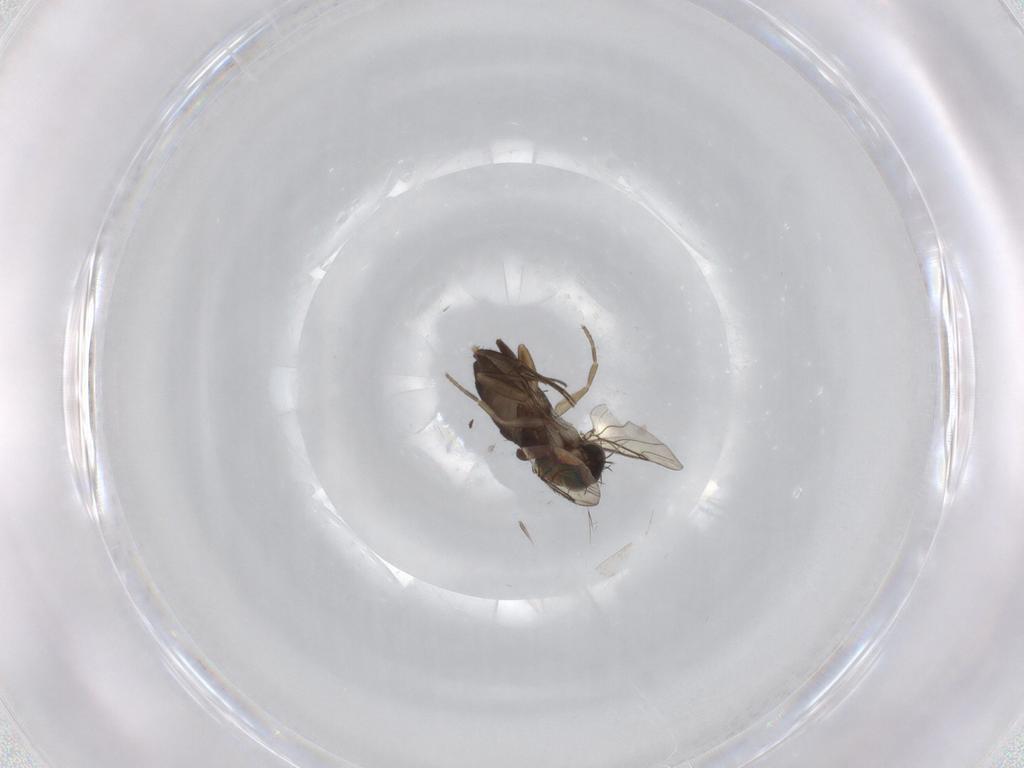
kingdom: Animalia
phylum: Arthropoda
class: Insecta
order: Diptera
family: Phoridae
